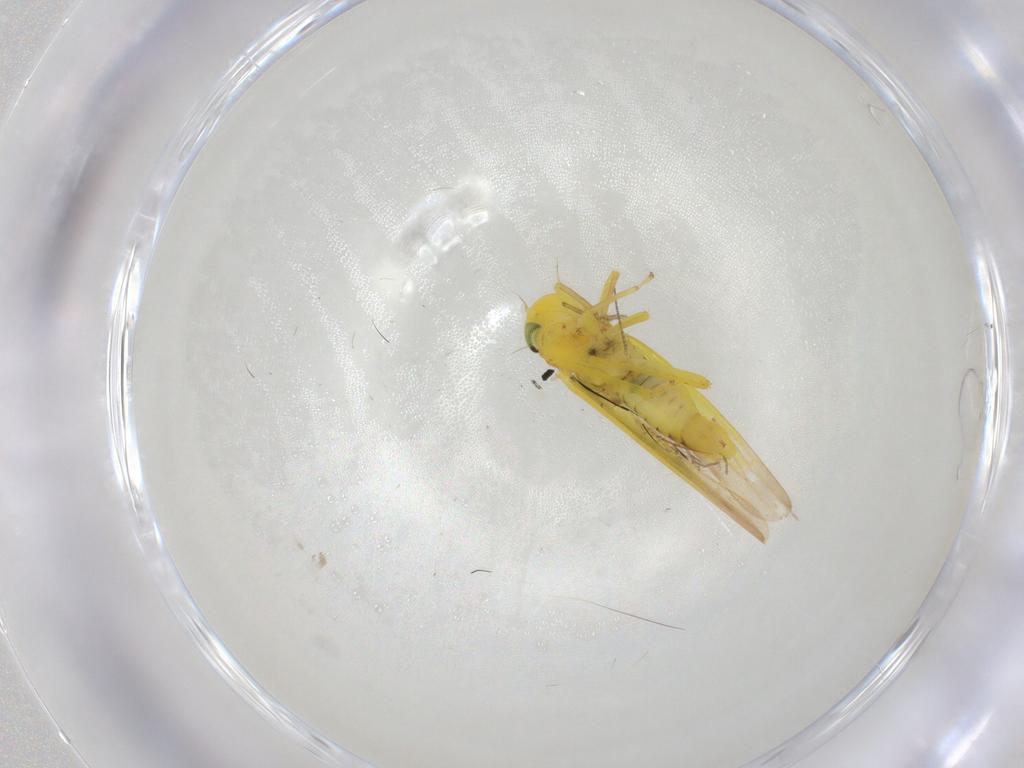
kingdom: Animalia
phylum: Arthropoda
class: Insecta
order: Hemiptera
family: Cicadellidae
